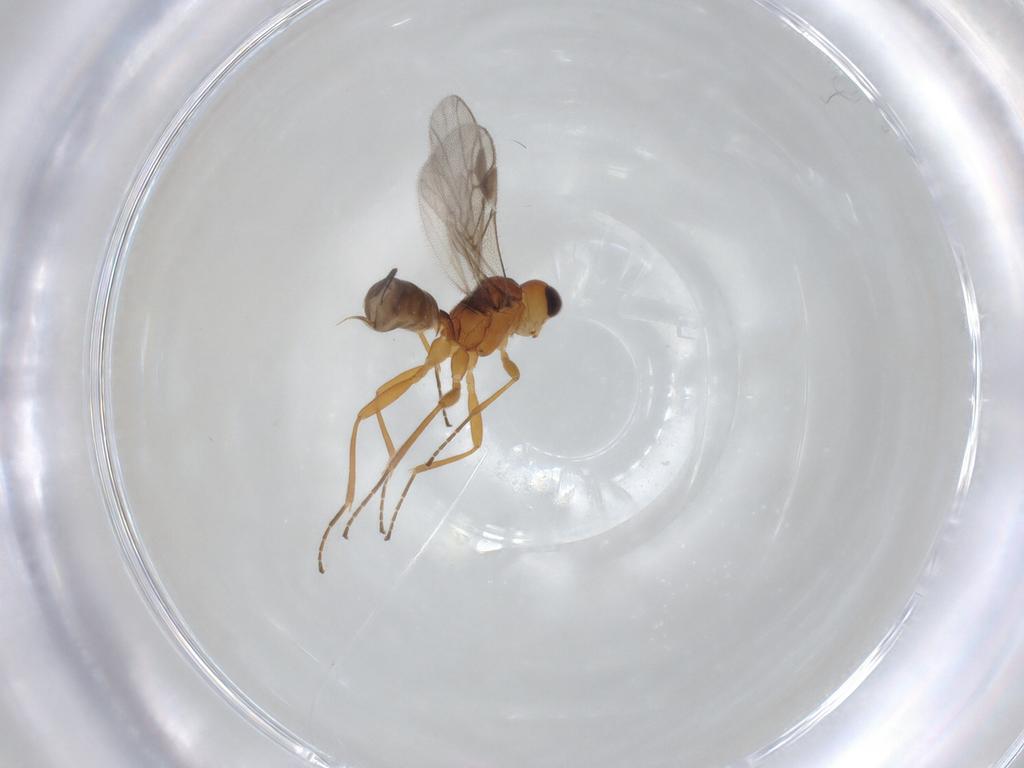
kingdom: Animalia
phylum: Arthropoda
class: Insecta
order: Hymenoptera
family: Braconidae
